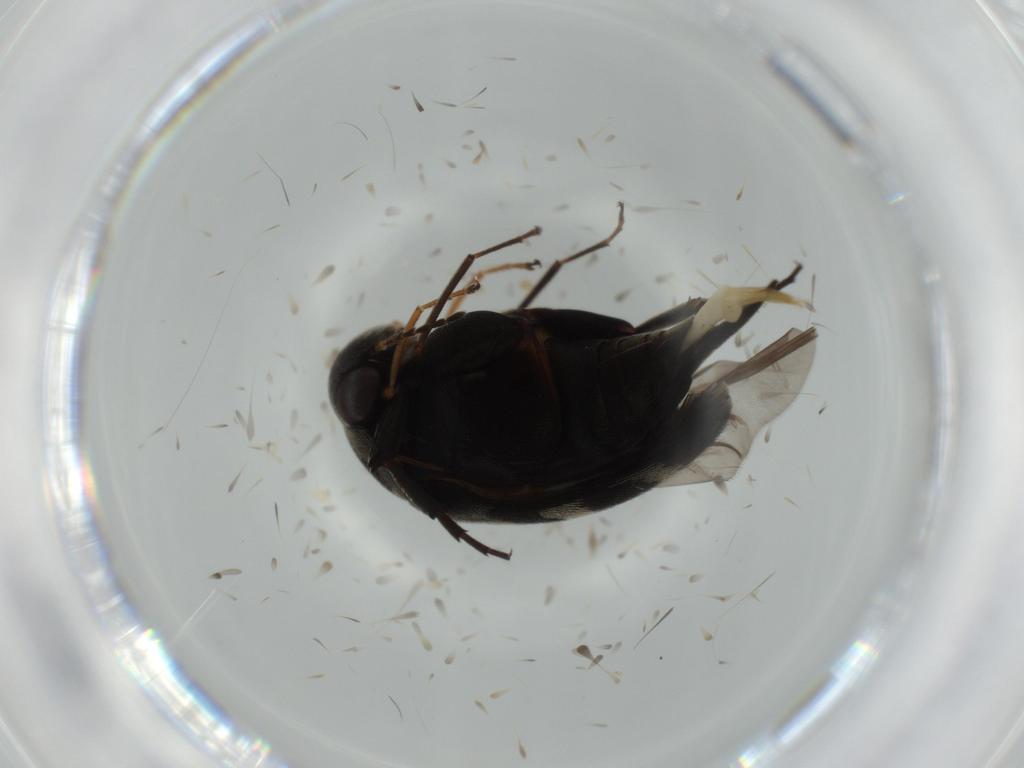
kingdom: Animalia
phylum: Arthropoda
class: Insecta
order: Coleoptera
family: Erotylidae
